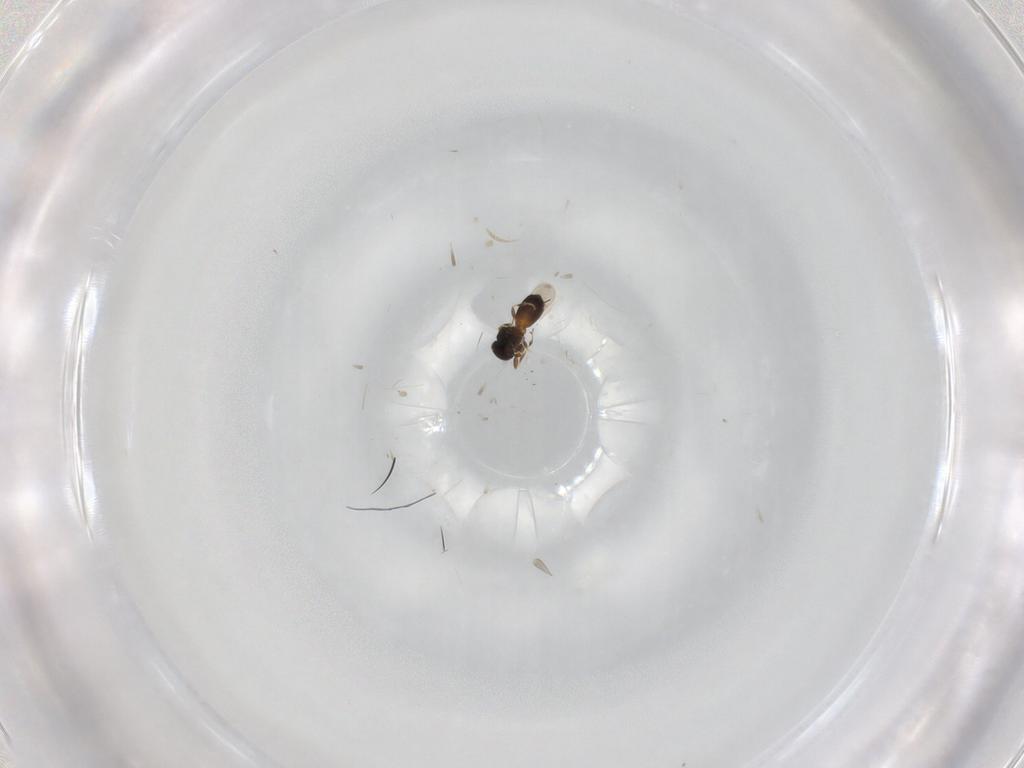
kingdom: Animalia
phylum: Arthropoda
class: Insecta
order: Hymenoptera
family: Platygastridae
